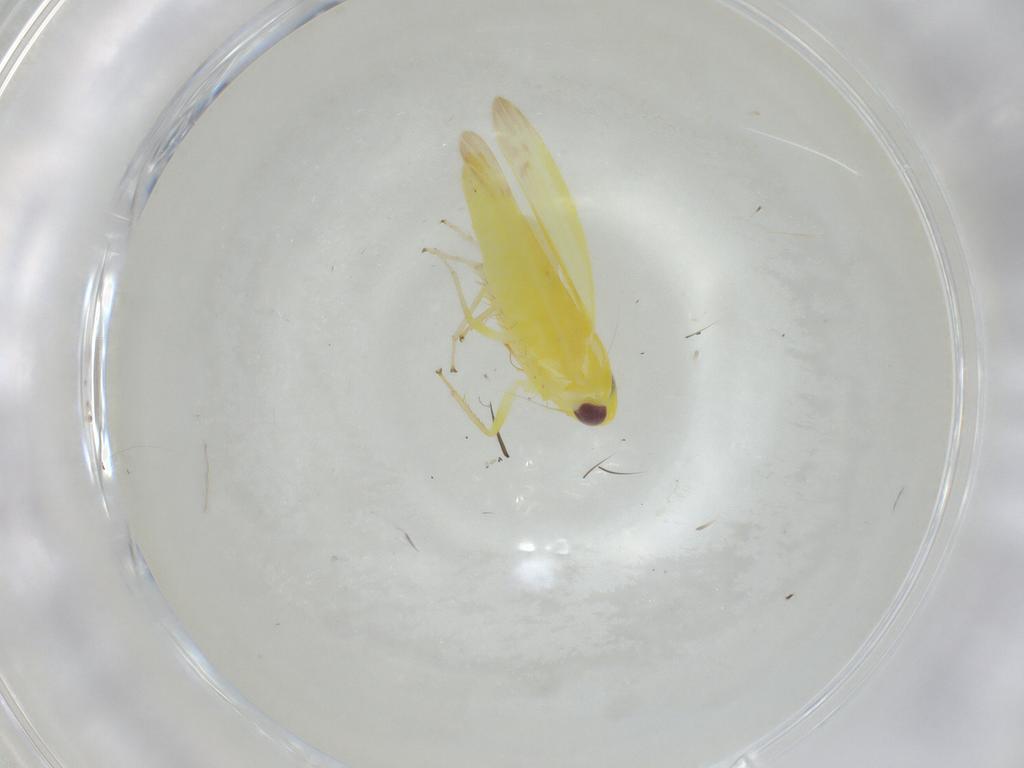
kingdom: Animalia
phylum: Arthropoda
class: Insecta
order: Hemiptera
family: Cicadellidae
